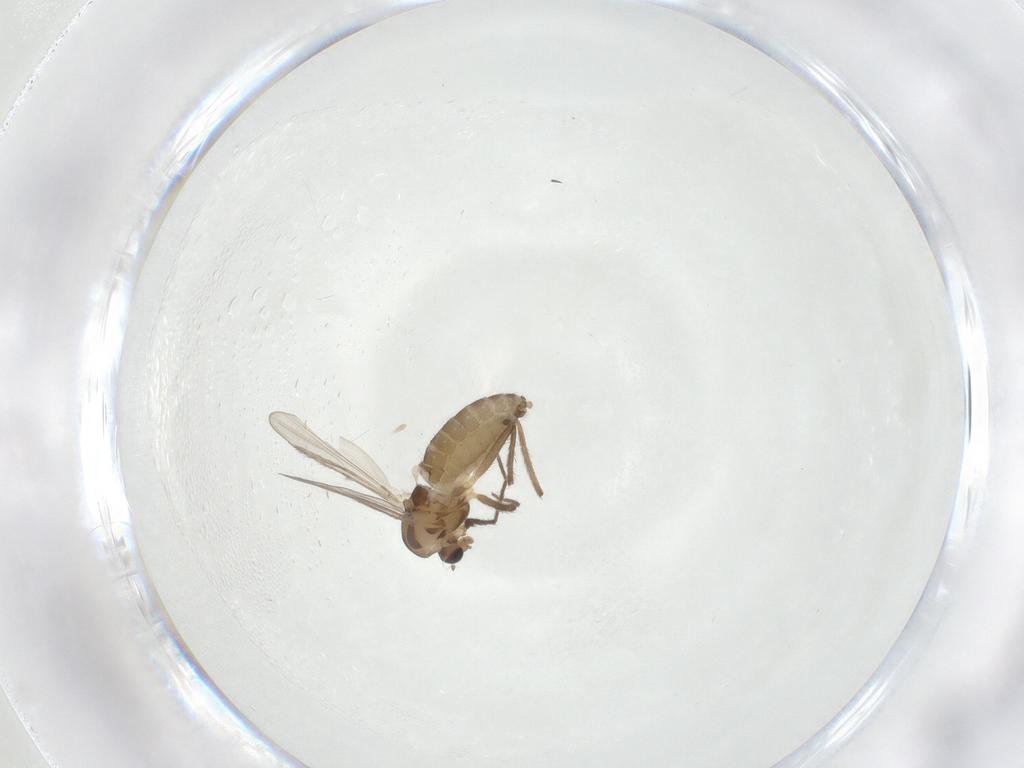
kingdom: Animalia
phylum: Arthropoda
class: Insecta
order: Diptera
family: Chironomidae
